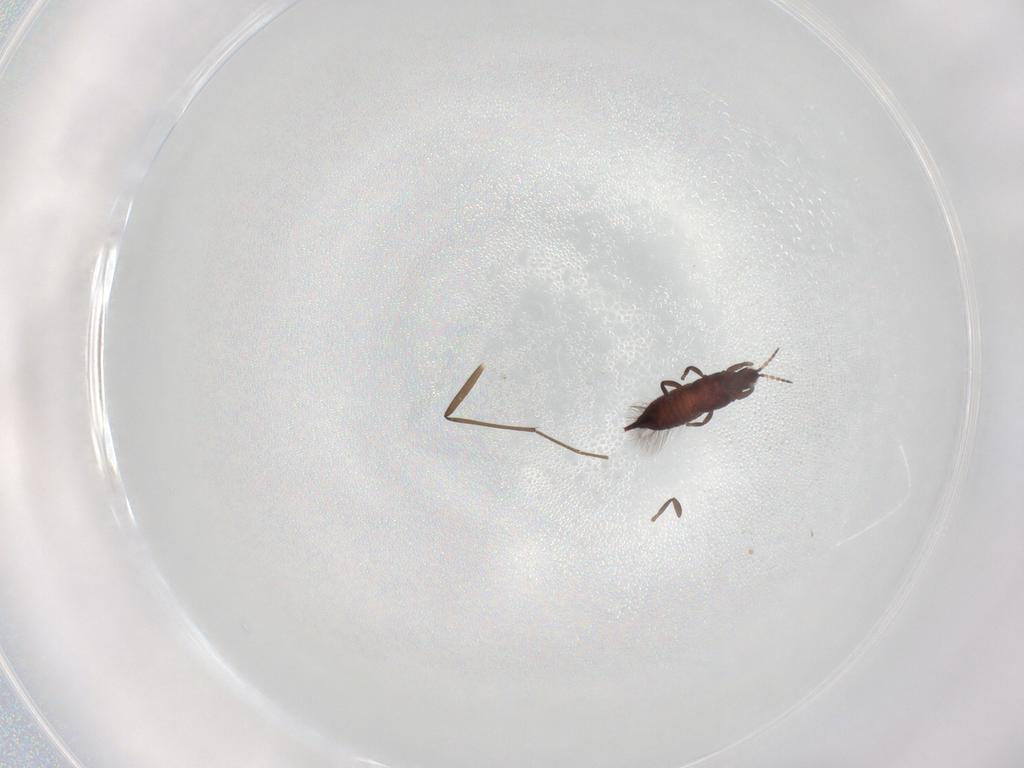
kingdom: Animalia
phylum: Arthropoda
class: Insecta
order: Thysanoptera
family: Phlaeothripidae
